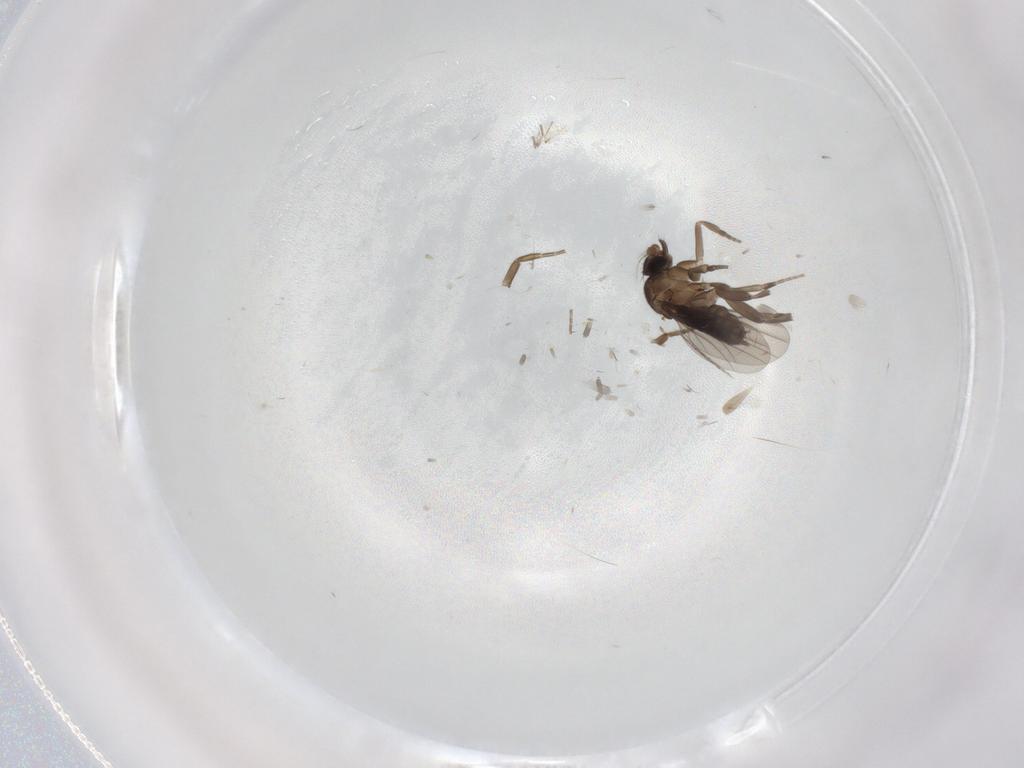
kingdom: Animalia
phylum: Arthropoda
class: Insecta
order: Diptera
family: Phoridae
